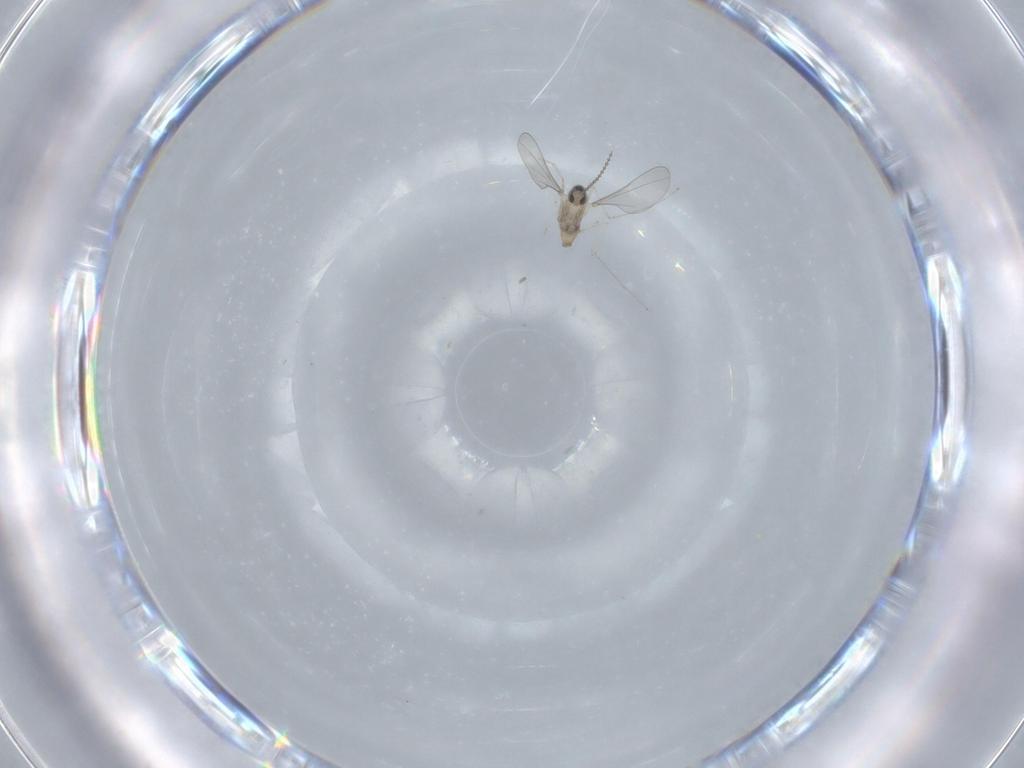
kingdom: Animalia
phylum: Arthropoda
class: Insecta
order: Diptera
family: Cecidomyiidae
